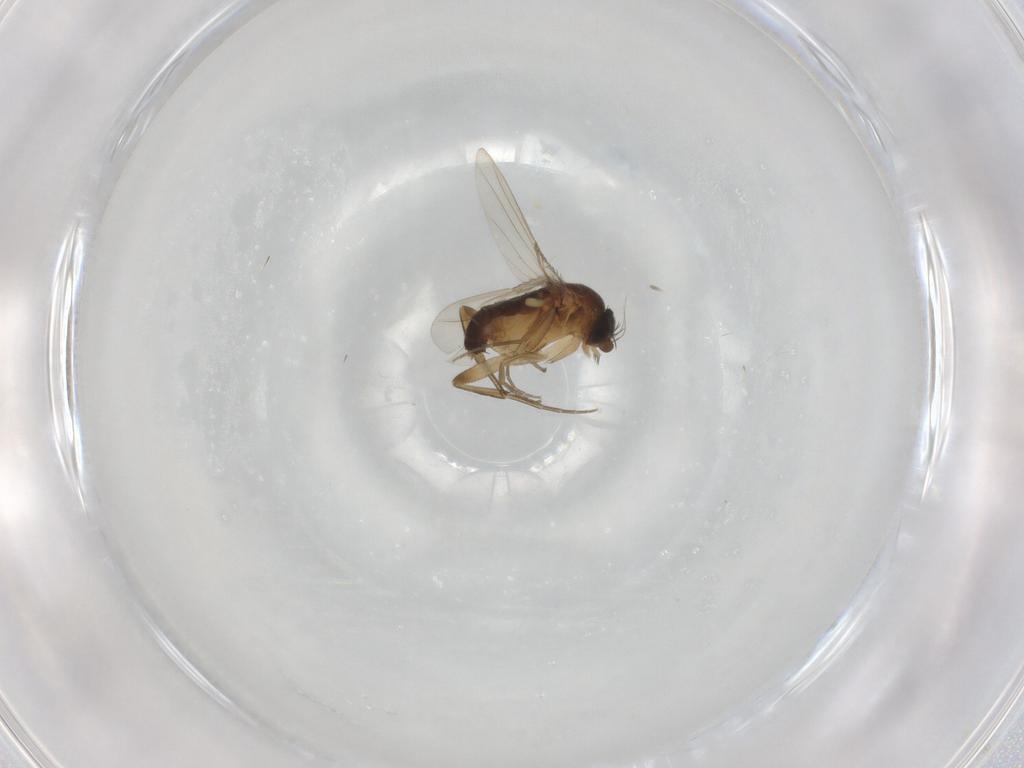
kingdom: Animalia
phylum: Arthropoda
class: Insecta
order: Diptera
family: Phoridae
